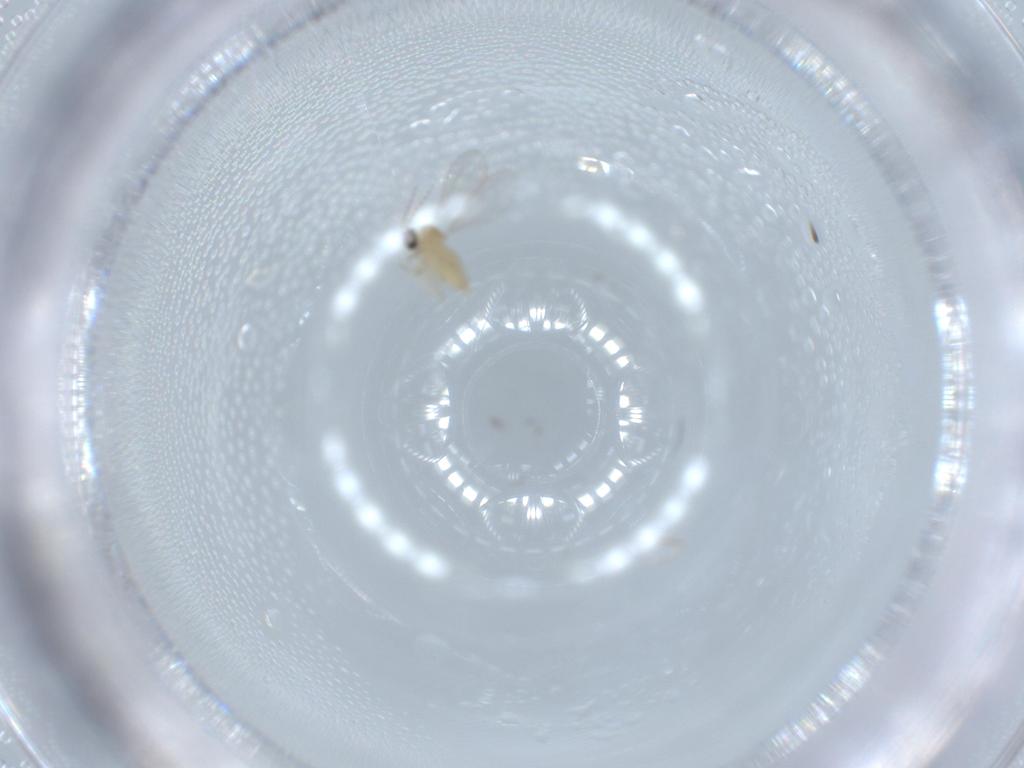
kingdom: Animalia
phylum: Arthropoda
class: Insecta
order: Diptera
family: Cecidomyiidae
